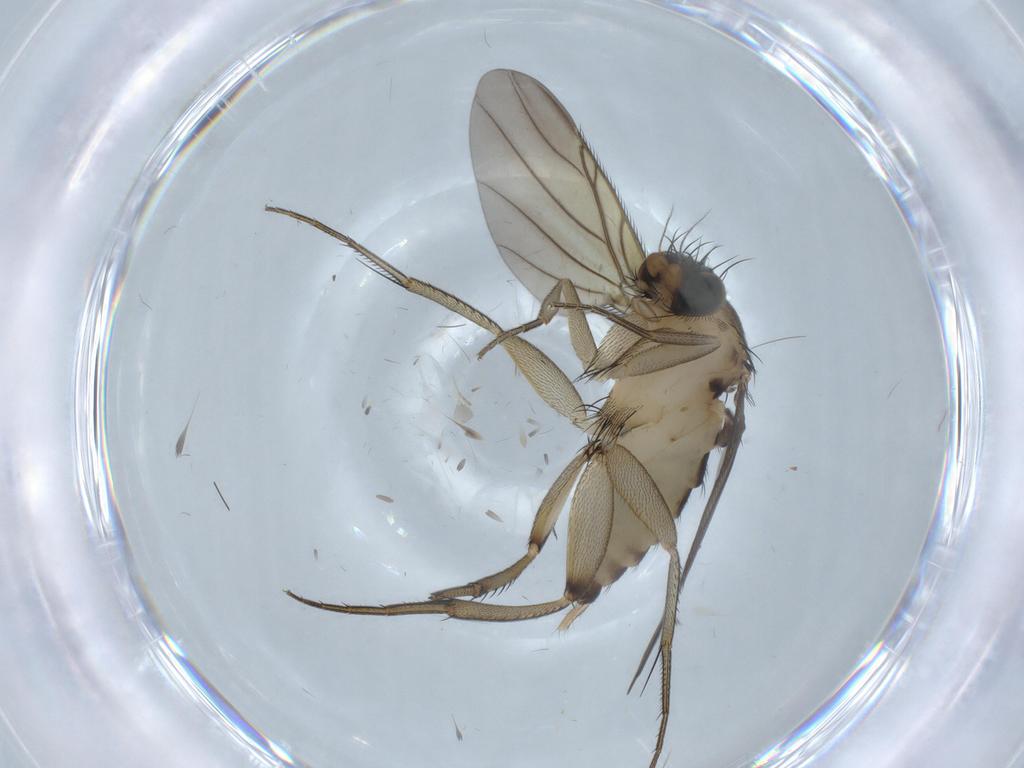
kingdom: Animalia
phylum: Arthropoda
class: Insecta
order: Diptera
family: Chironomidae
